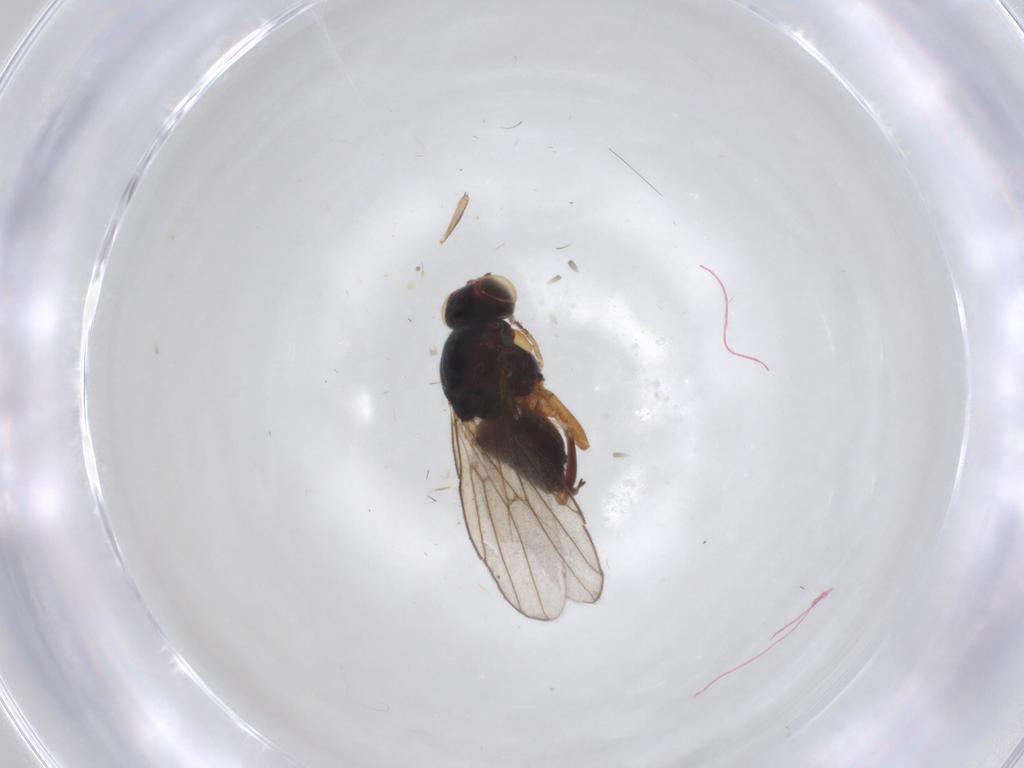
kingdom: Animalia
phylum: Arthropoda
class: Insecta
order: Diptera
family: Chloropidae
